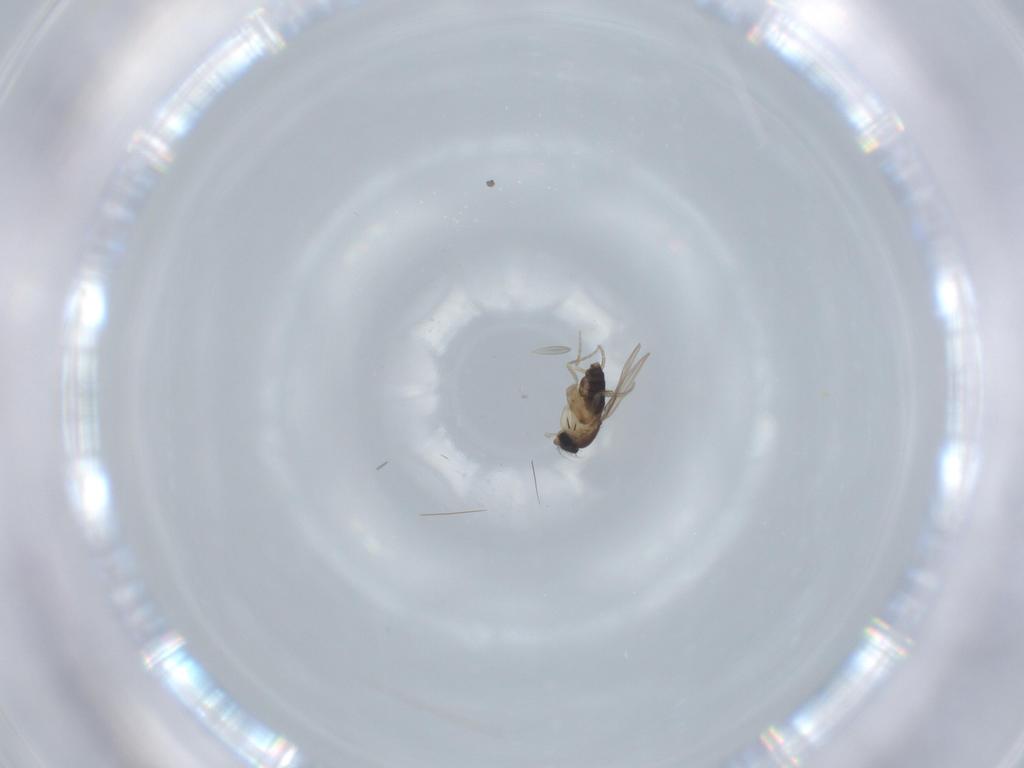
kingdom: Animalia
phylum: Arthropoda
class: Insecta
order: Diptera
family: Phoridae
